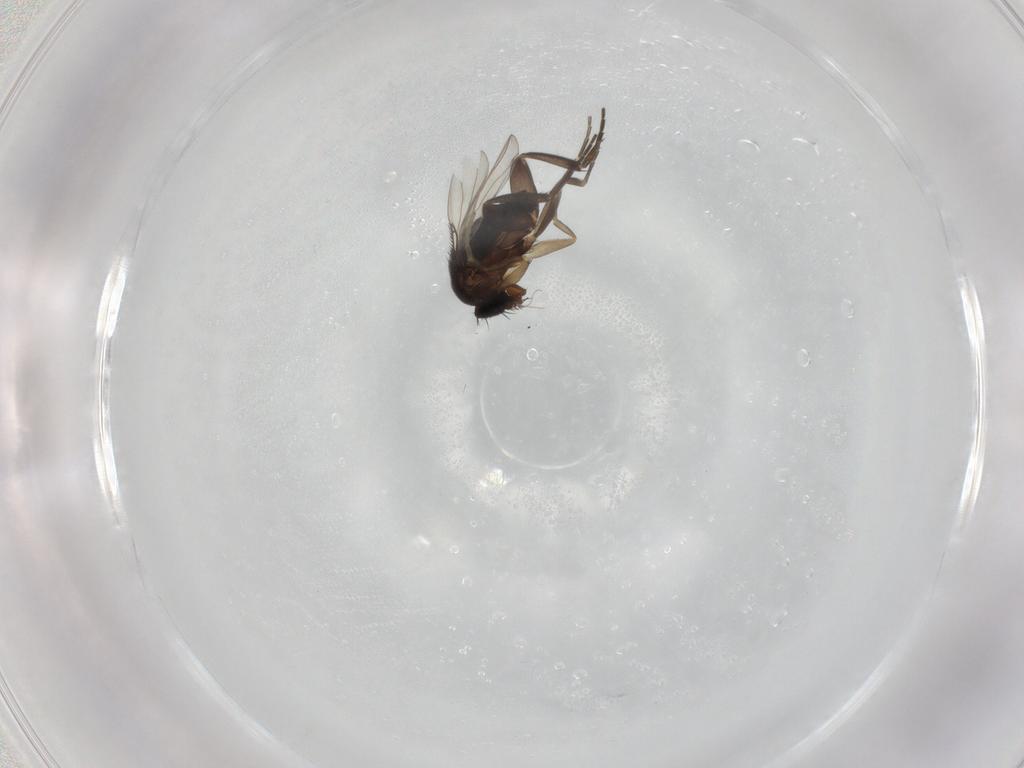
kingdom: Animalia
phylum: Arthropoda
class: Insecta
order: Diptera
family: Phoridae
